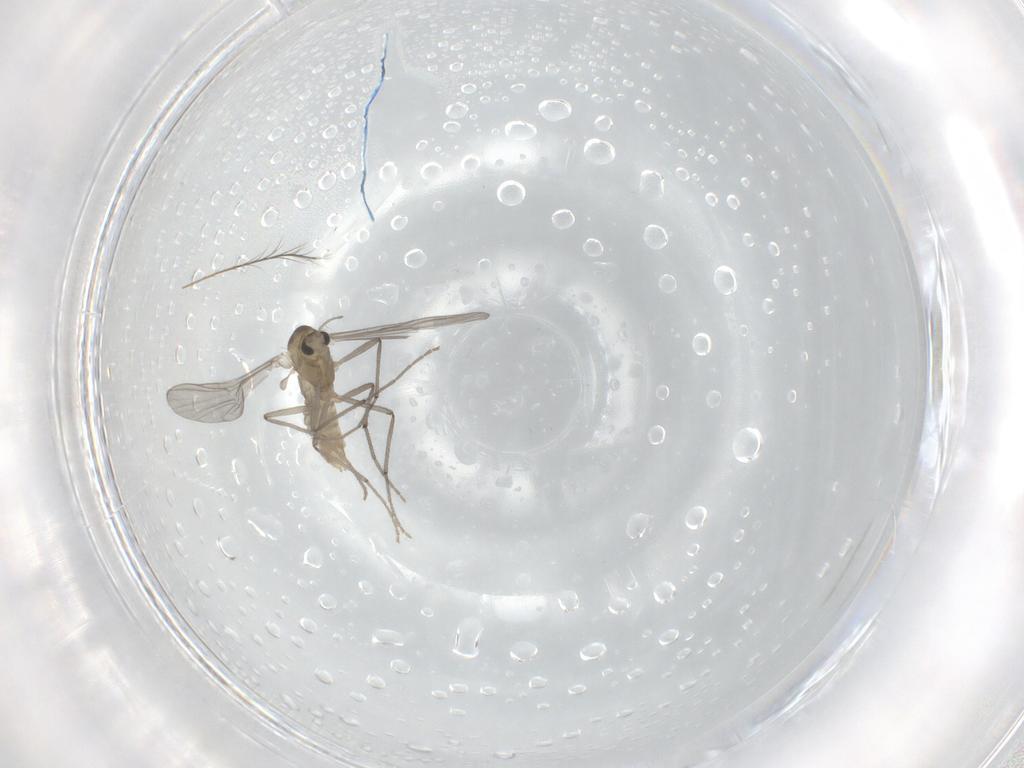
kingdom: Animalia
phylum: Arthropoda
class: Insecta
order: Diptera
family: Chironomidae
